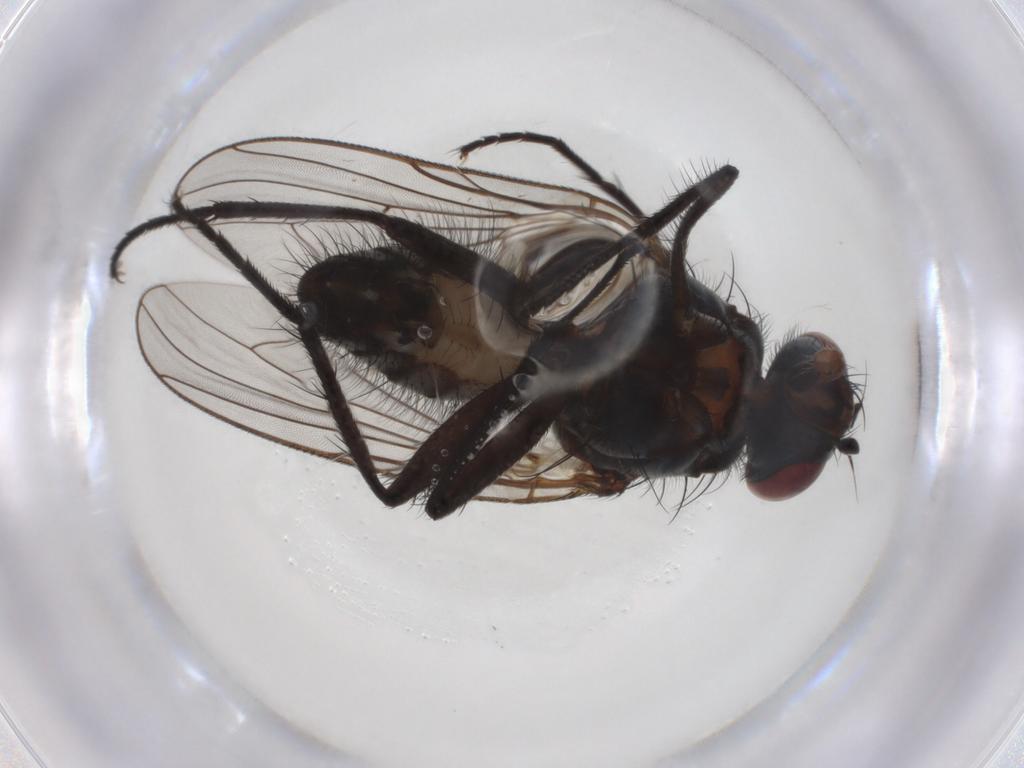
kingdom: Animalia
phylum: Arthropoda
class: Insecta
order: Diptera
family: Anthomyiidae
